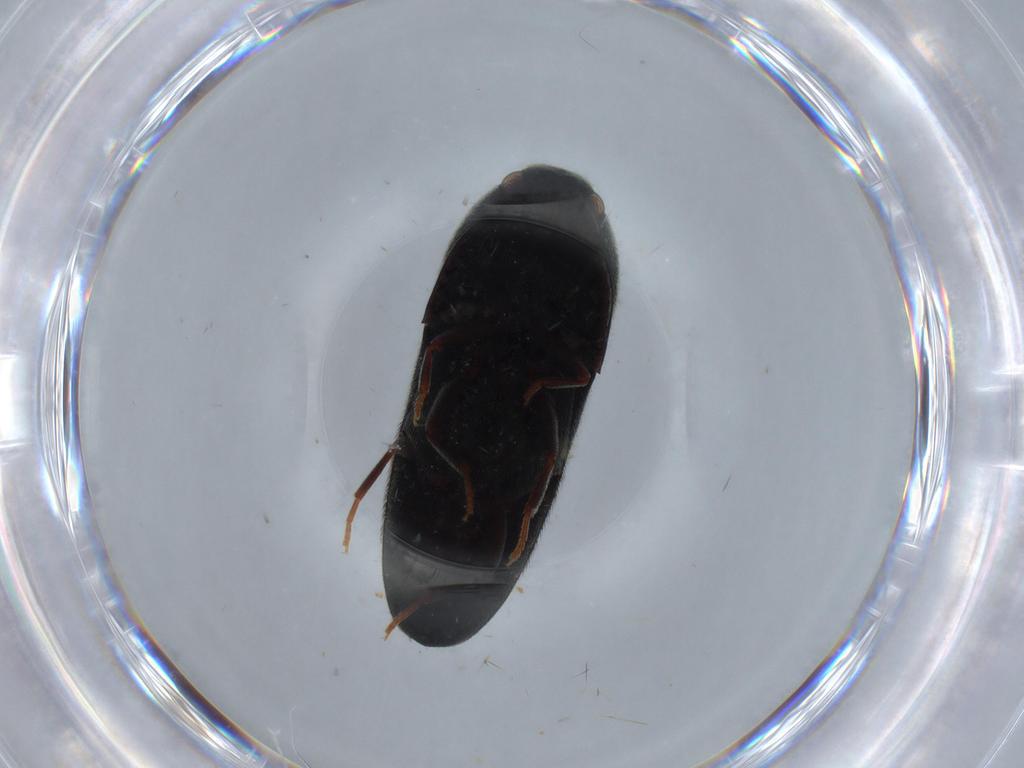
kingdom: Animalia
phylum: Arthropoda
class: Insecta
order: Coleoptera
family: Eucnemidae
